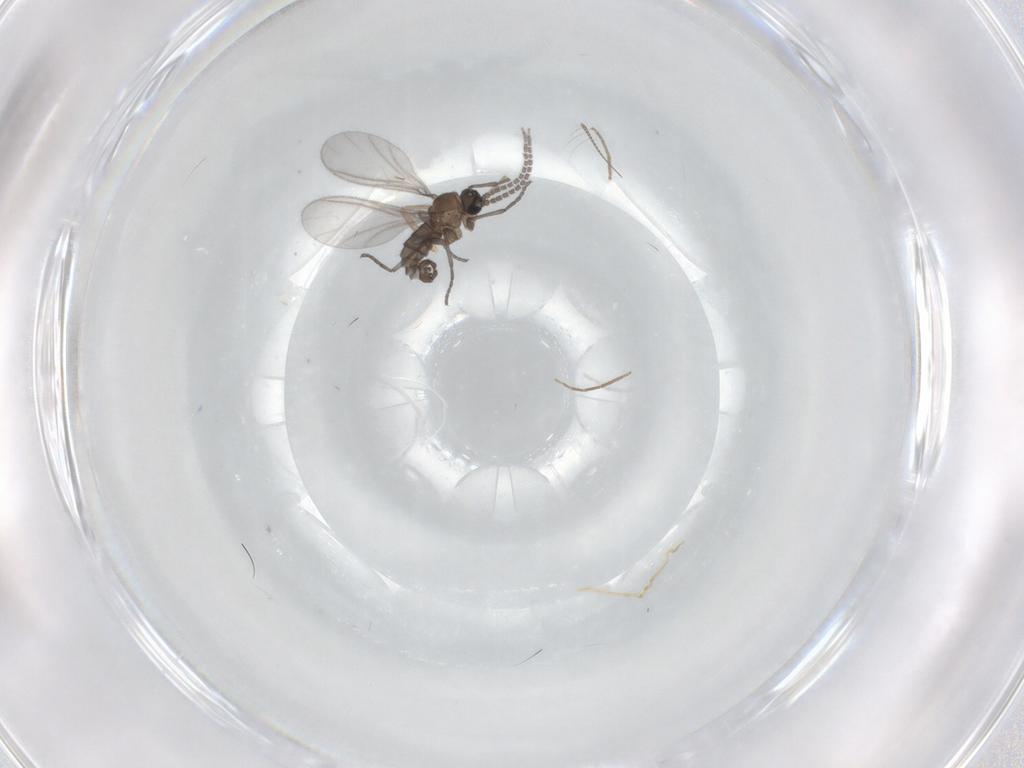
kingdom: Animalia
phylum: Arthropoda
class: Insecta
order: Diptera
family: Sciaridae
